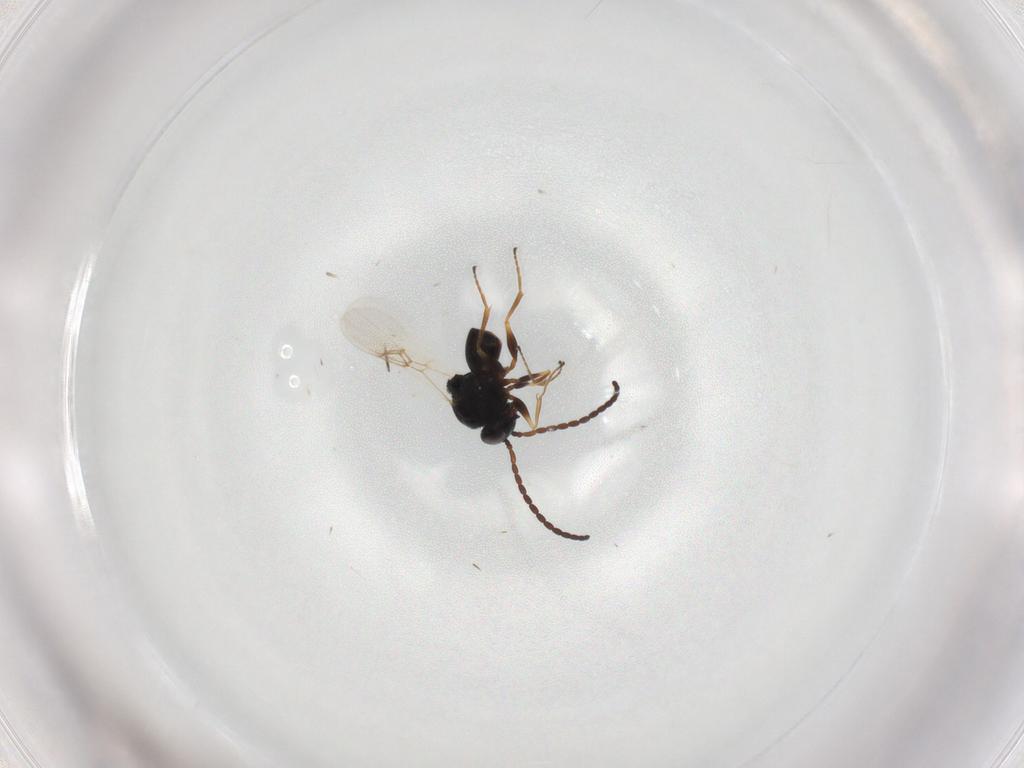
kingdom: Animalia
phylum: Arthropoda
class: Insecta
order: Hymenoptera
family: Figitidae
